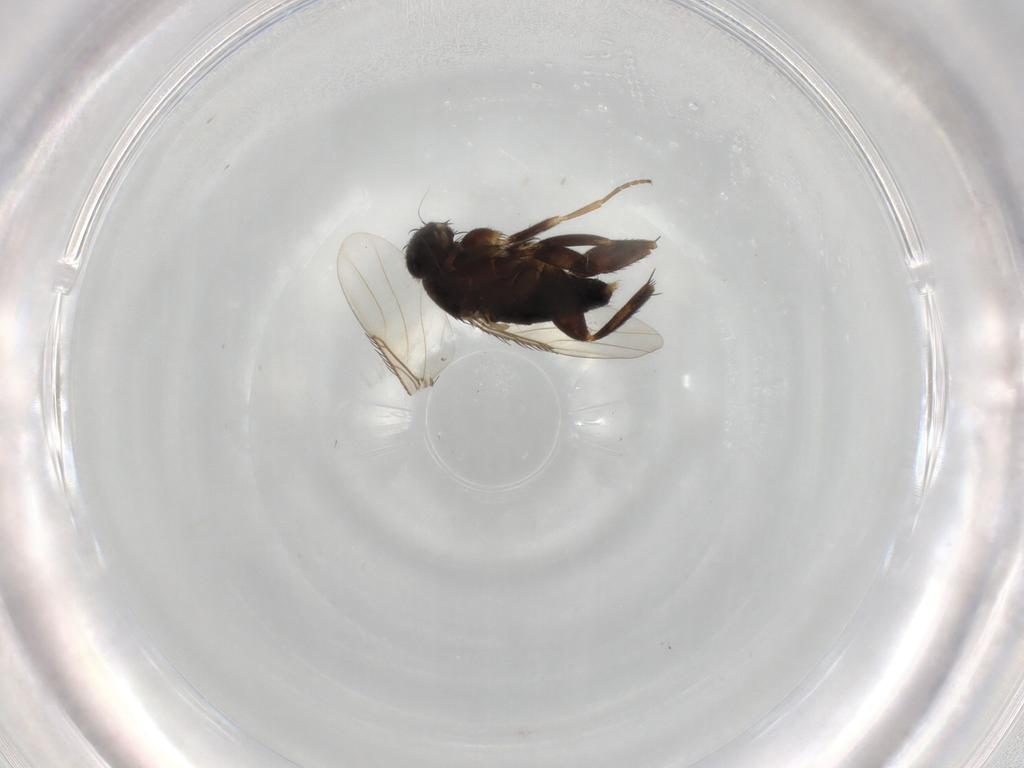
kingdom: Animalia
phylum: Arthropoda
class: Insecta
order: Diptera
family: Phoridae
